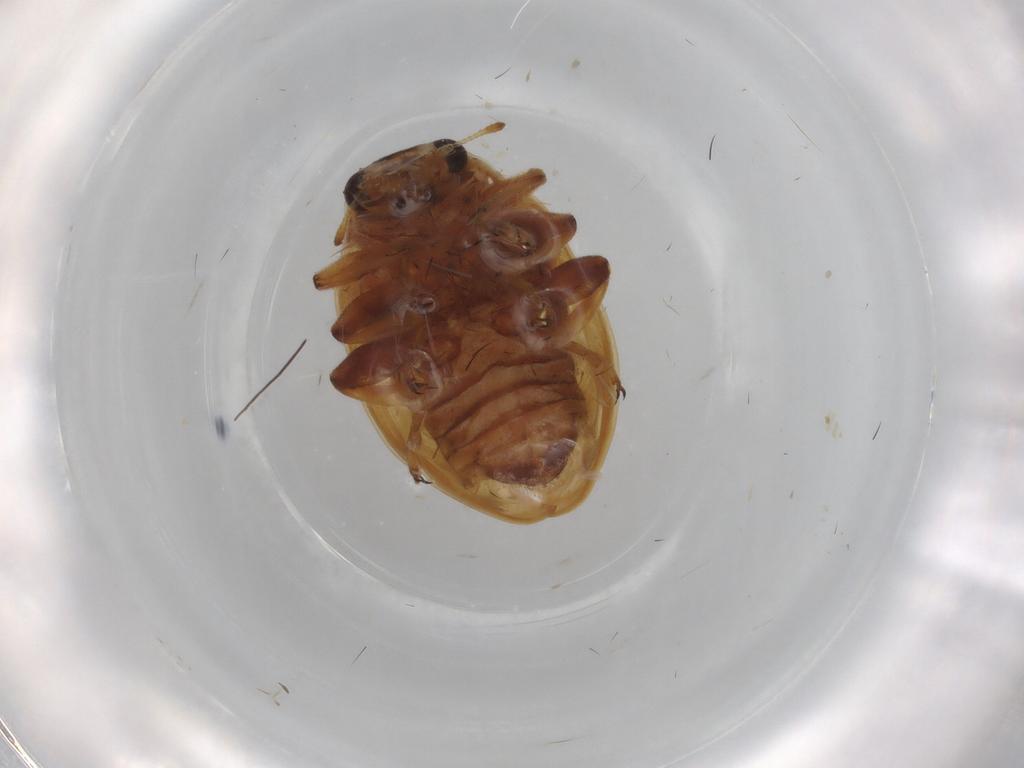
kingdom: Animalia
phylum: Arthropoda
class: Insecta
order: Coleoptera
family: Coccinellidae
